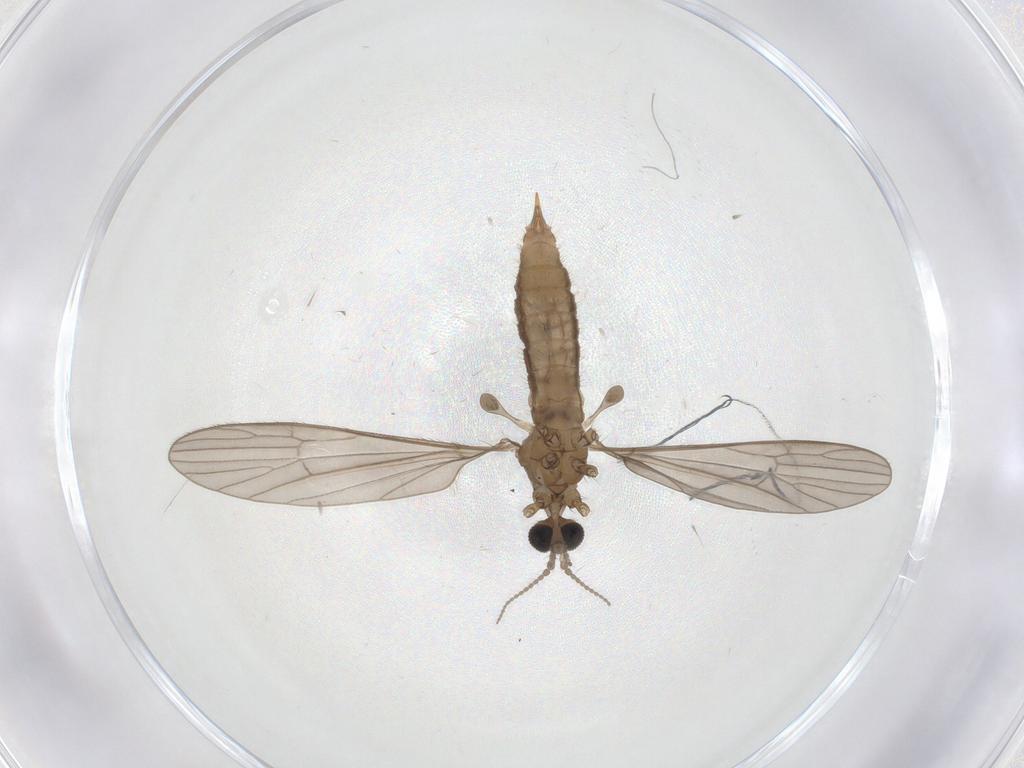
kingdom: Animalia
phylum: Arthropoda
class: Insecta
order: Diptera
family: Limoniidae
